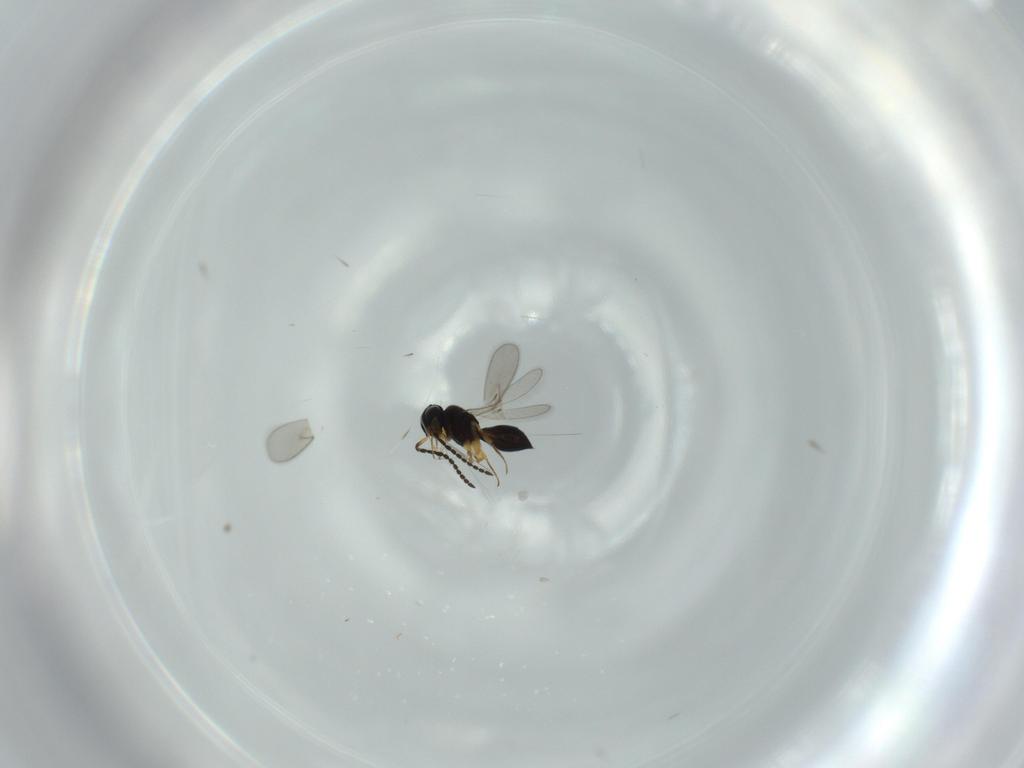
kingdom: Animalia
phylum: Arthropoda
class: Insecta
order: Hymenoptera
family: Scelionidae
